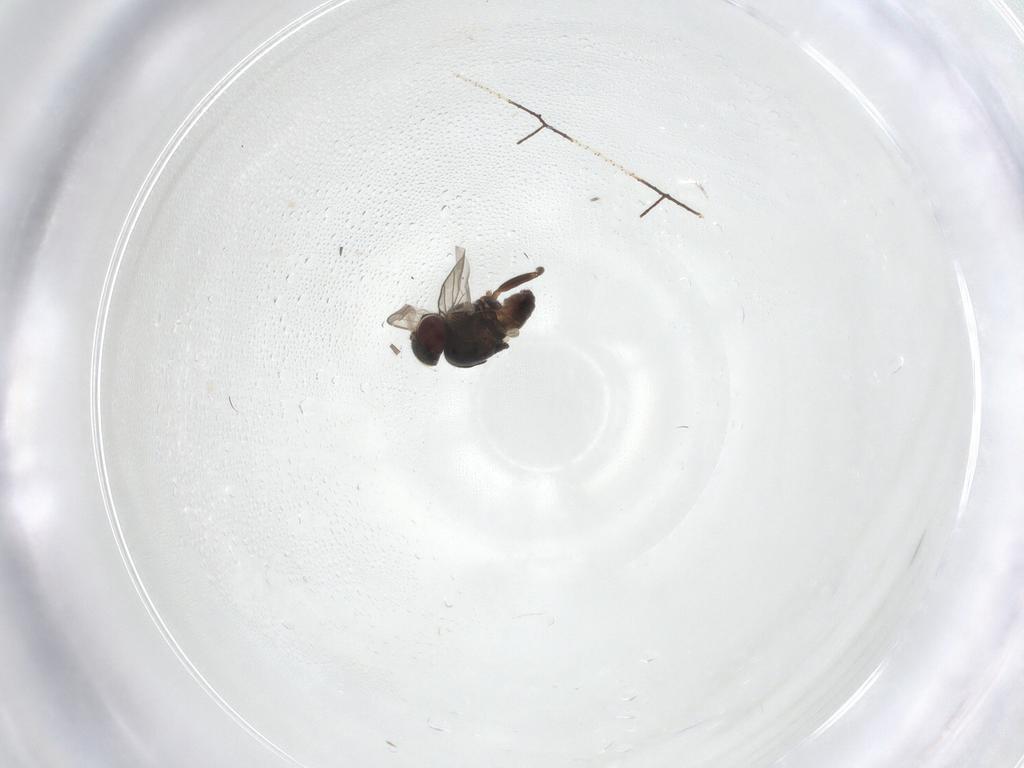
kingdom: Animalia
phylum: Arthropoda
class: Insecta
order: Diptera
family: Chloropidae
